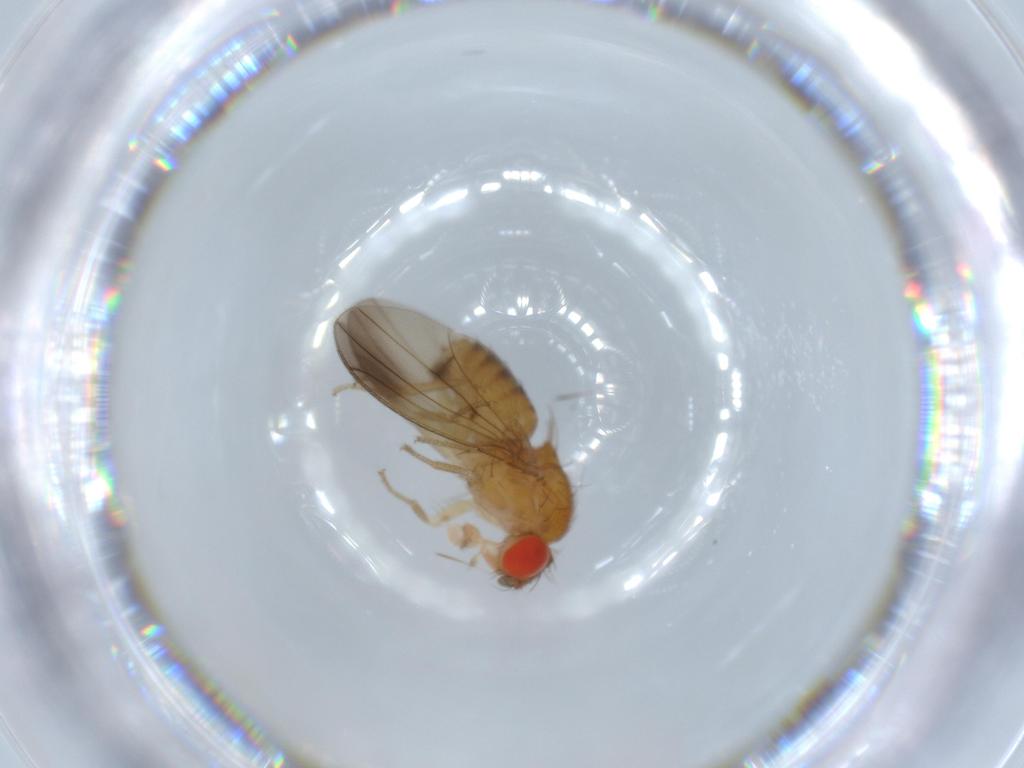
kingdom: Animalia
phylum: Arthropoda
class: Insecta
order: Diptera
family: Drosophilidae
